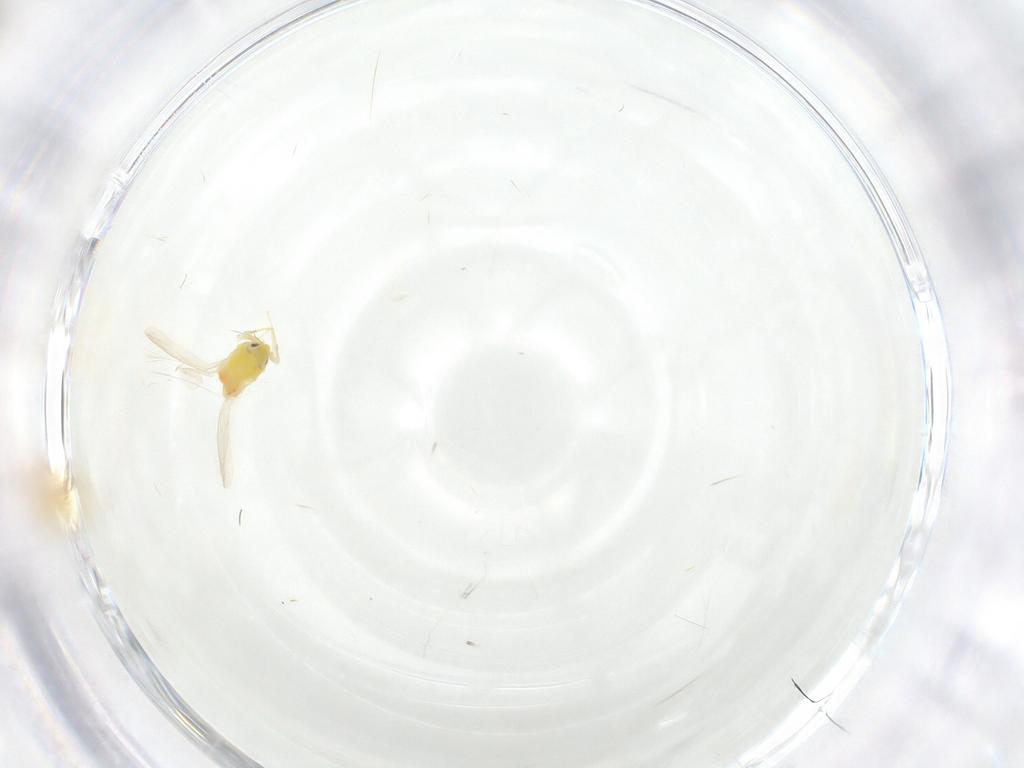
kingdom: Animalia
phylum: Arthropoda
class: Insecta
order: Hemiptera
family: Aleyrodidae
